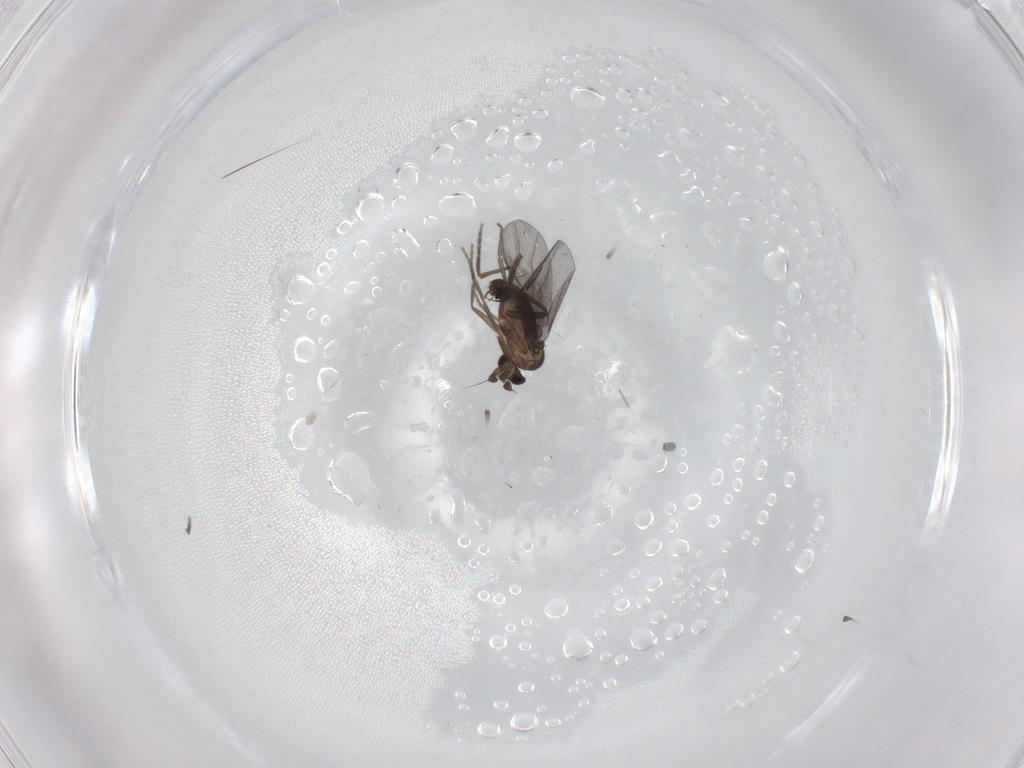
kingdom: Animalia
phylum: Arthropoda
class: Insecta
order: Diptera
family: Phoridae
